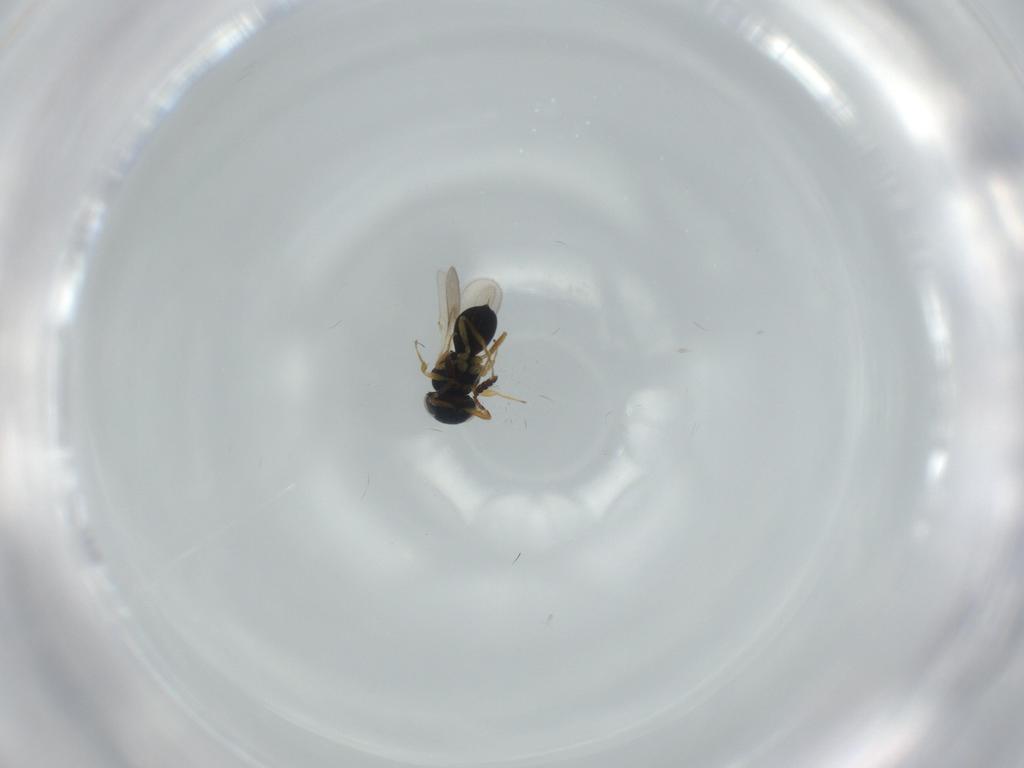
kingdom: Animalia
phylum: Arthropoda
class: Insecta
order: Hymenoptera
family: Scelionidae
